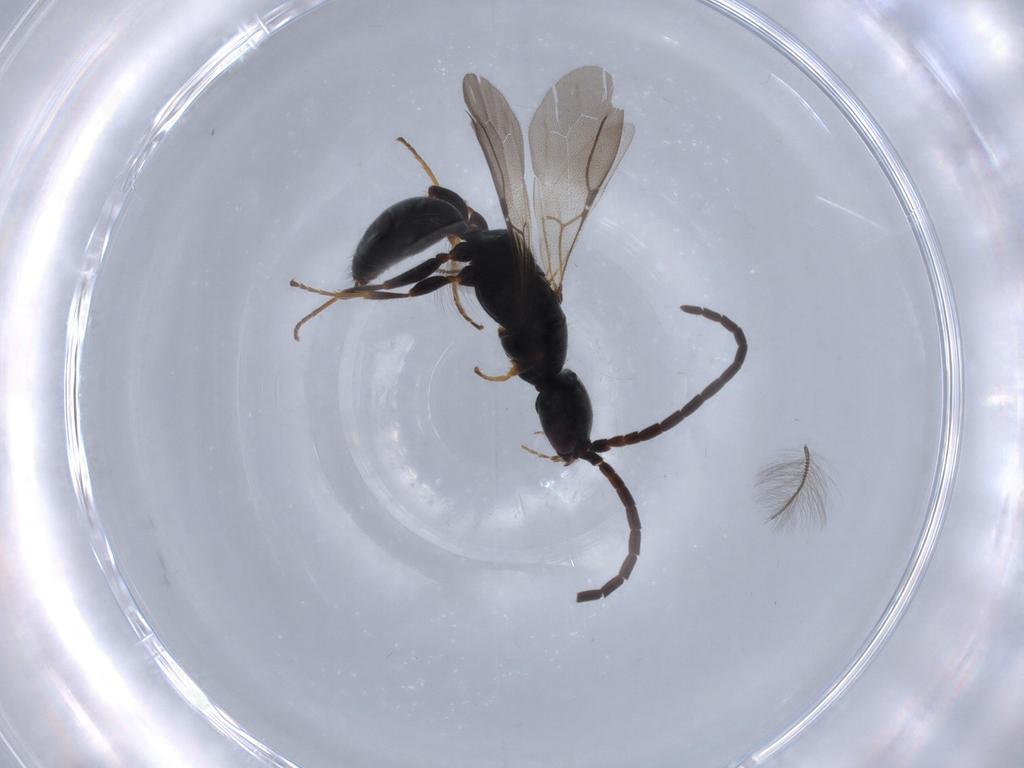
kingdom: Animalia
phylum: Arthropoda
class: Insecta
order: Hymenoptera
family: Bethylidae
